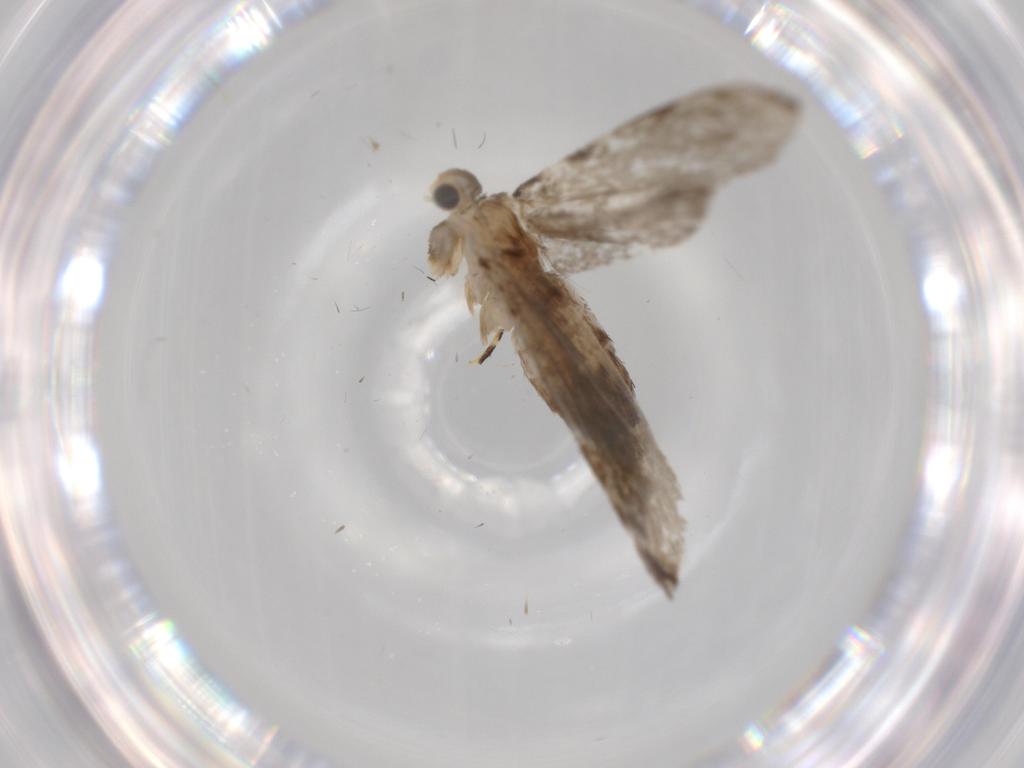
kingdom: Animalia
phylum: Arthropoda
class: Insecta
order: Lepidoptera
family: Tineidae
